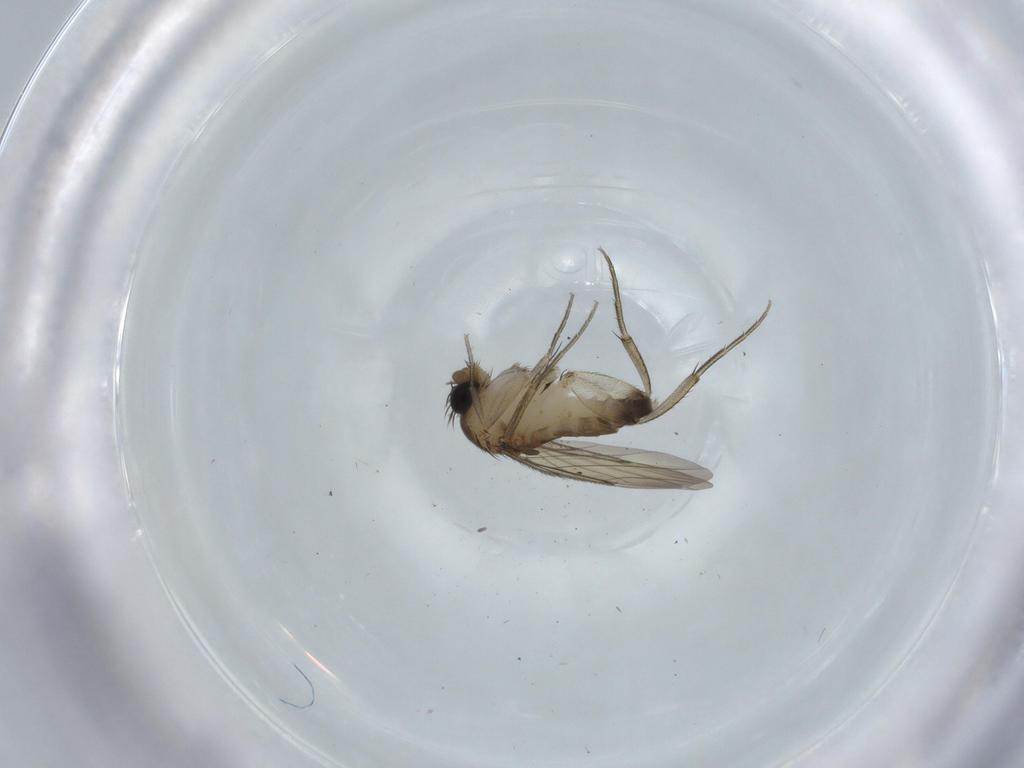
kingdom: Animalia
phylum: Arthropoda
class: Insecta
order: Diptera
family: Phoridae
